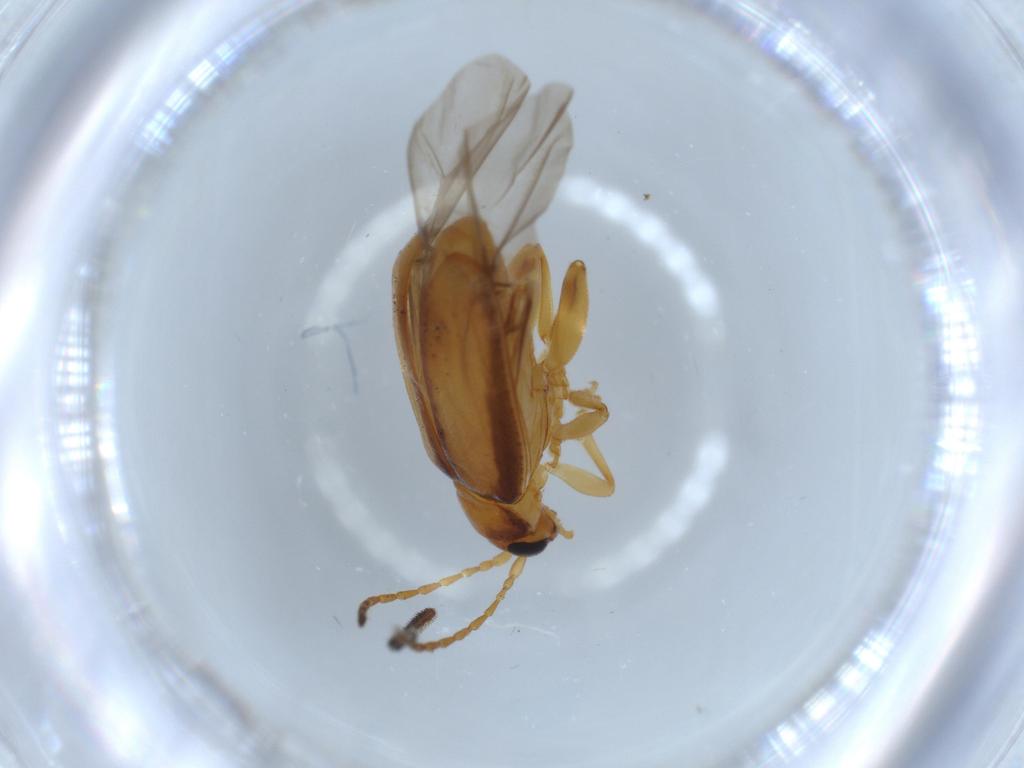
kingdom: Animalia
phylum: Arthropoda
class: Insecta
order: Coleoptera
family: Chrysomelidae
